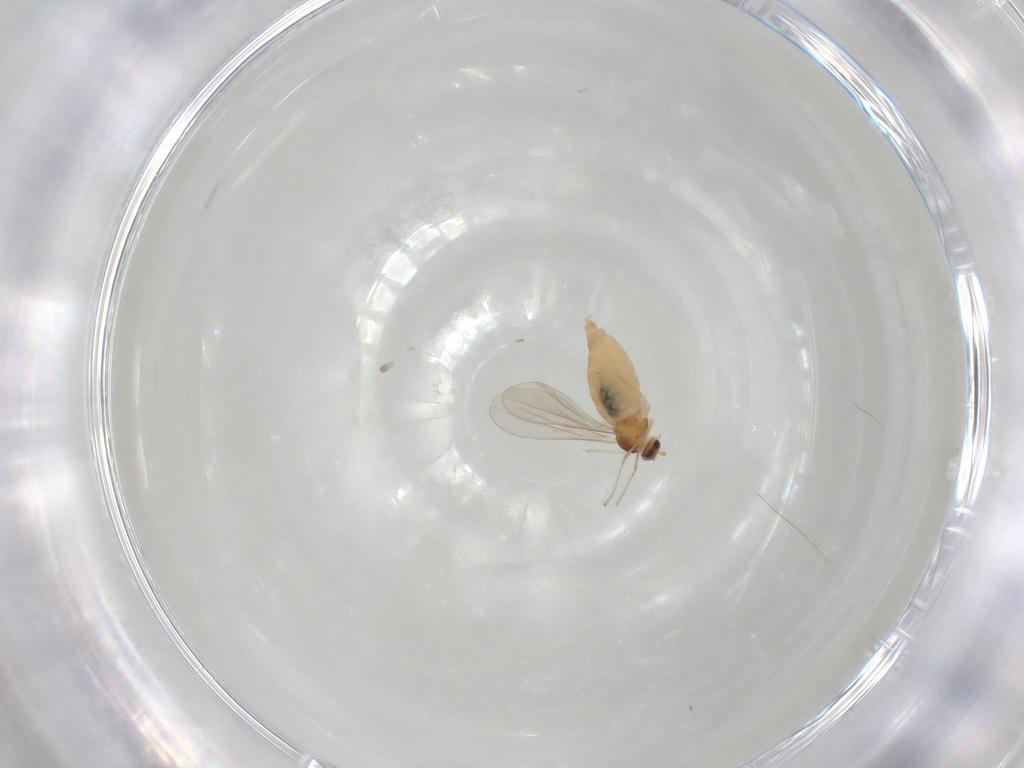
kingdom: Animalia
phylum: Arthropoda
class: Insecta
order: Diptera
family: Cecidomyiidae
